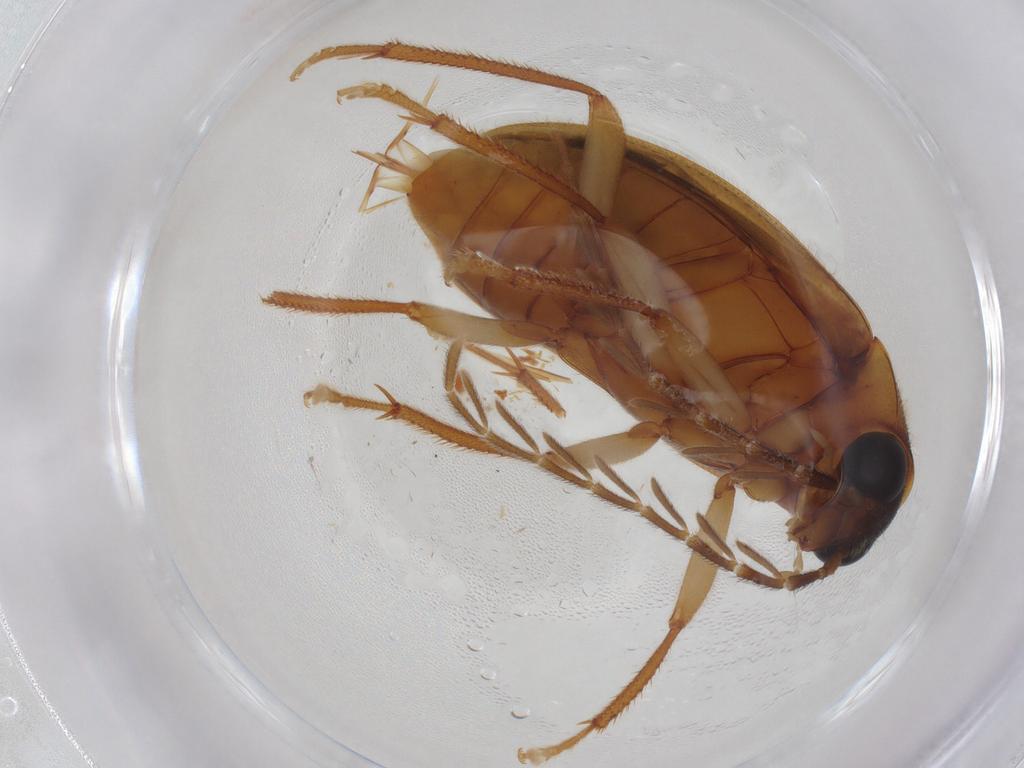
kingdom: Animalia
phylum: Arthropoda
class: Insecta
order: Coleoptera
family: Ptilodactylidae
